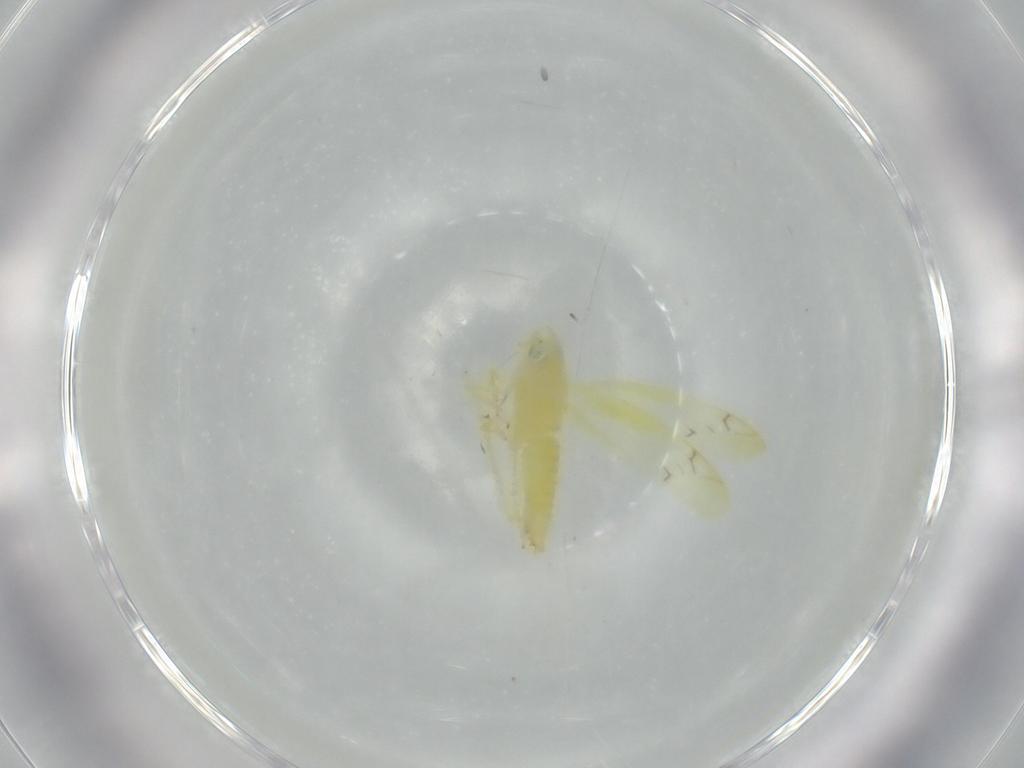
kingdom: Animalia
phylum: Arthropoda
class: Insecta
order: Hemiptera
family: Cicadellidae
